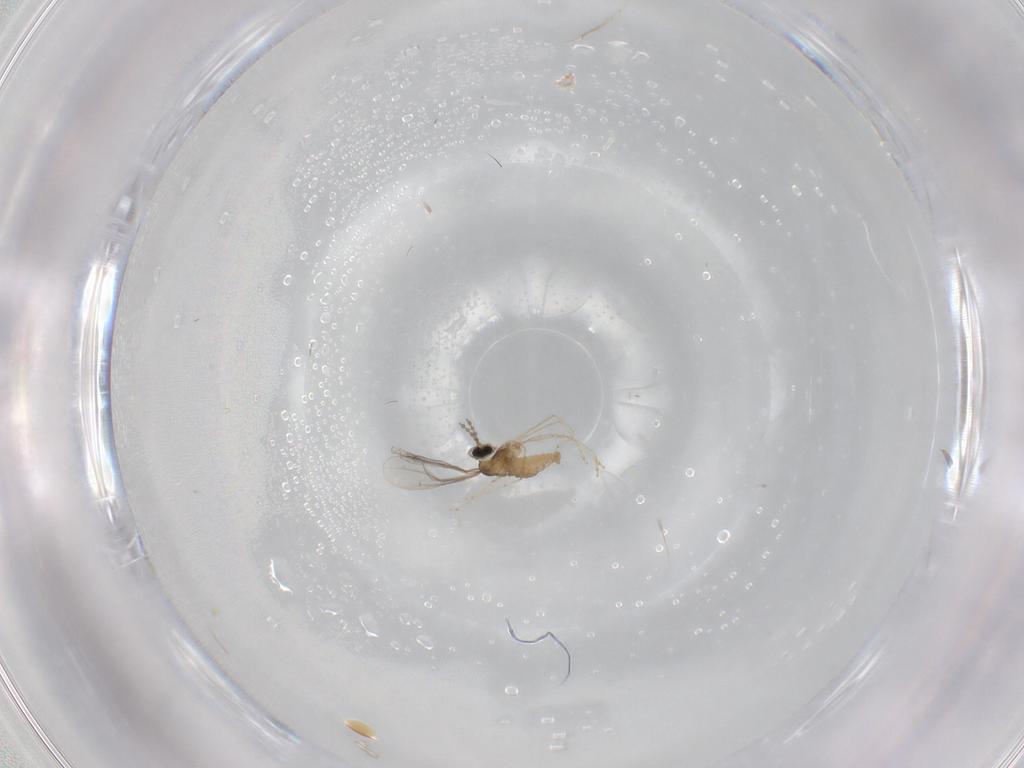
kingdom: Animalia
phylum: Arthropoda
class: Insecta
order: Diptera
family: Cecidomyiidae
